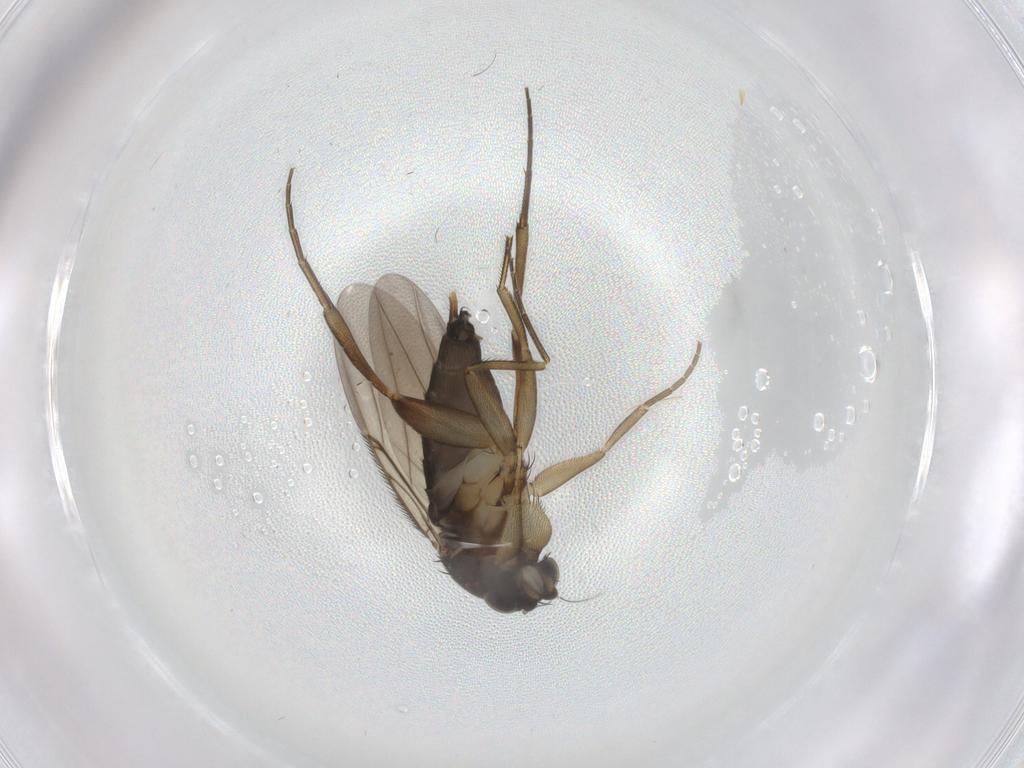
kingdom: Animalia
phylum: Arthropoda
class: Insecta
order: Diptera
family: Phoridae
